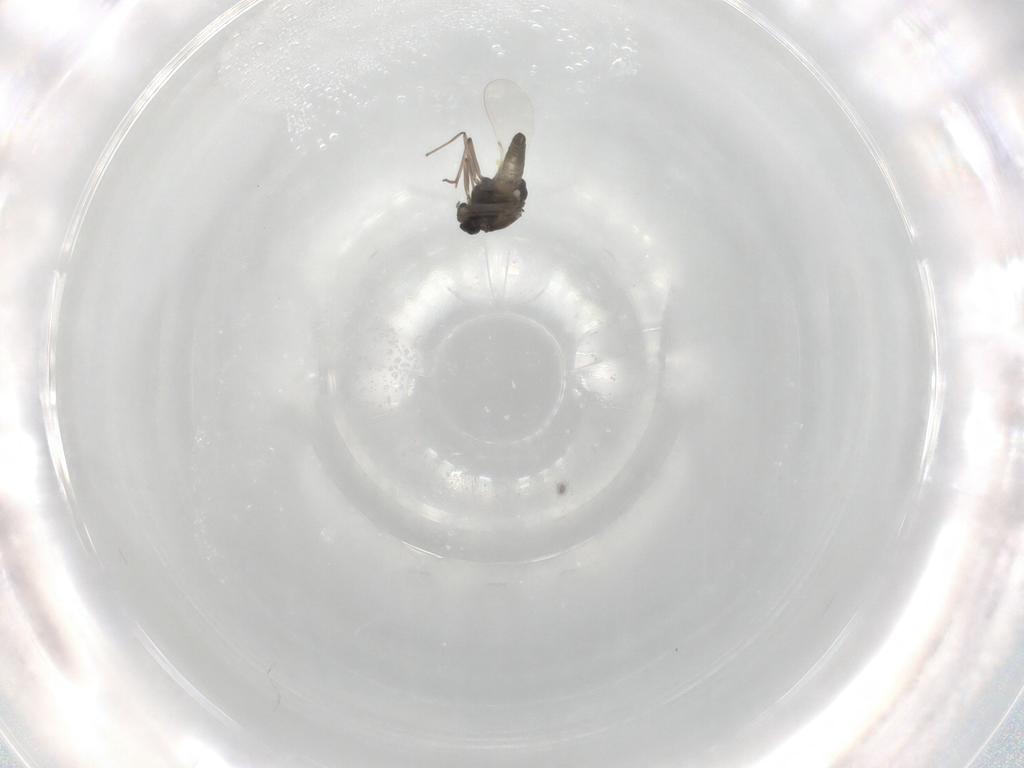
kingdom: Animalia
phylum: Arthropoda
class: Insecta
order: Diptera
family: Chironomidae
